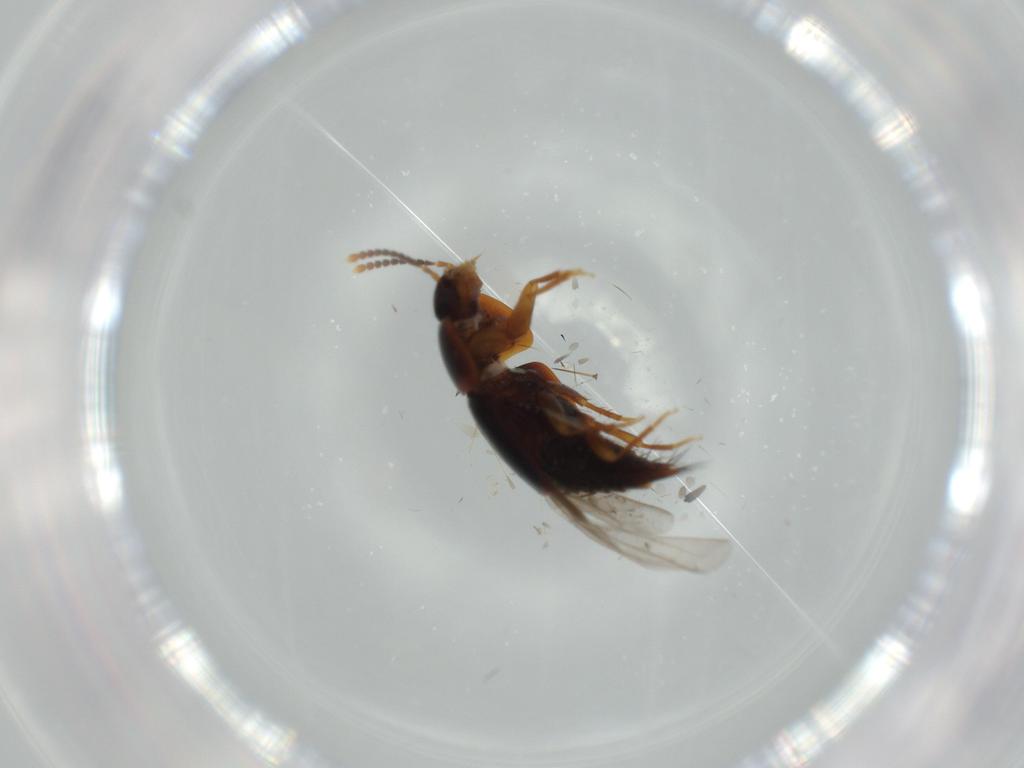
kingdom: Animalia
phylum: Arthropoda
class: Insecta
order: Coleoptera
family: Staphylinidae
